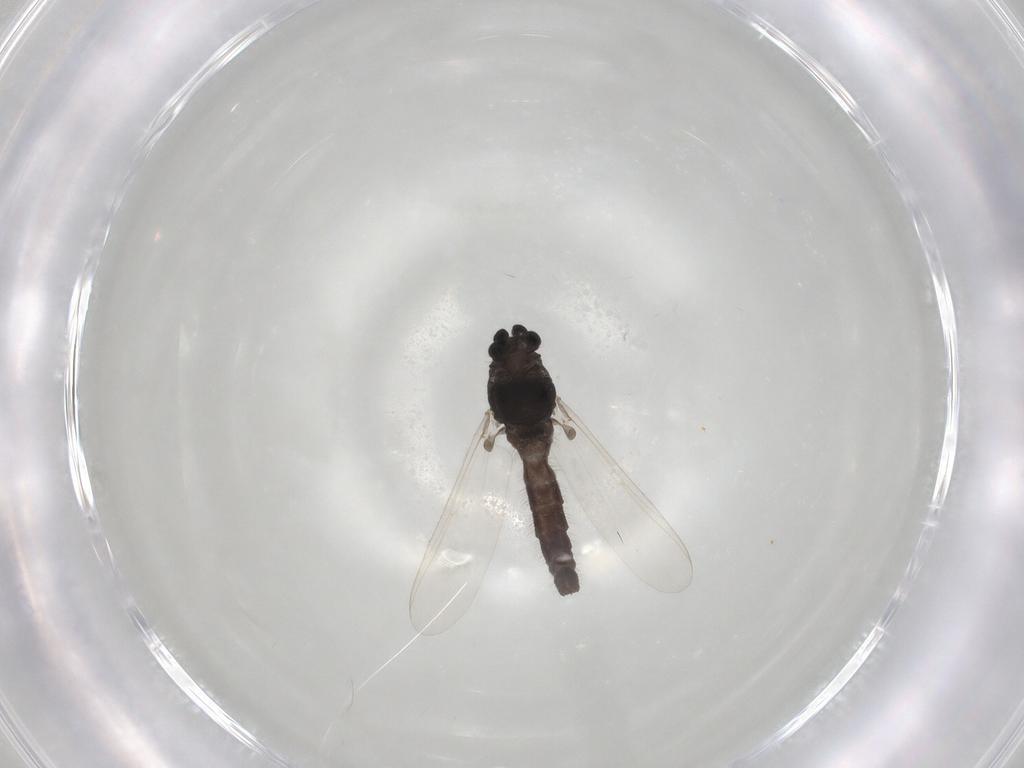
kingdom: Animalia
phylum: Arthropoda
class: Insecta
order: Diptera
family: Chironomidae
